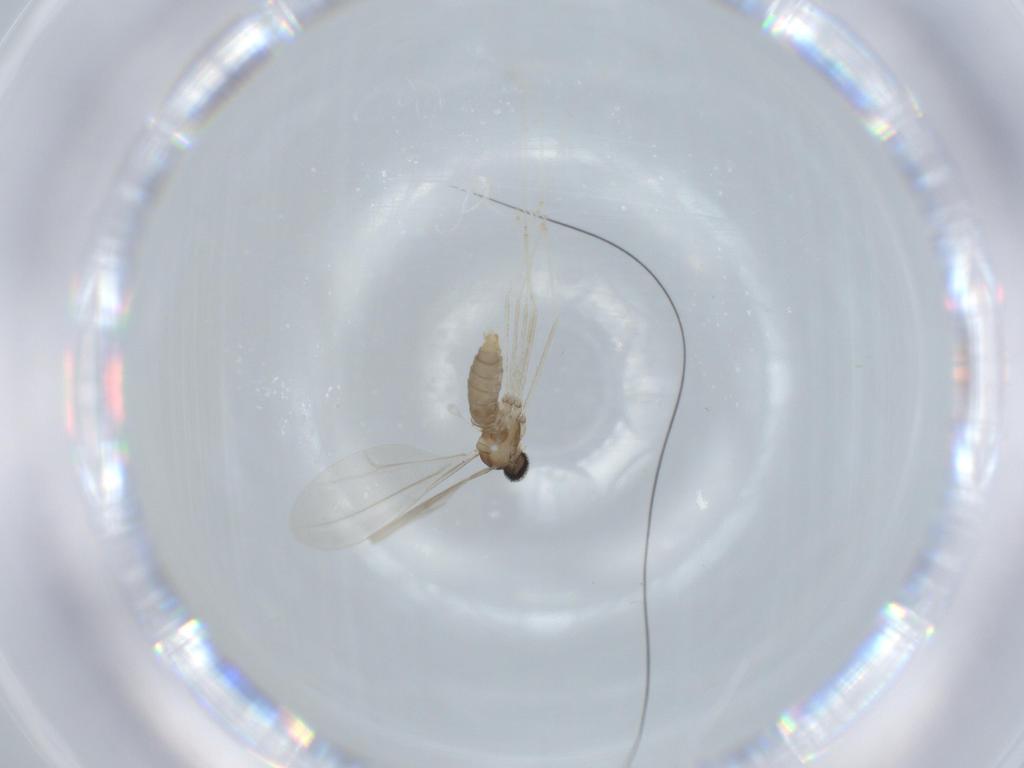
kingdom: Animalia
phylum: Arthropoda
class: Insecta
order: Diptera
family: Cecidomyiidae
